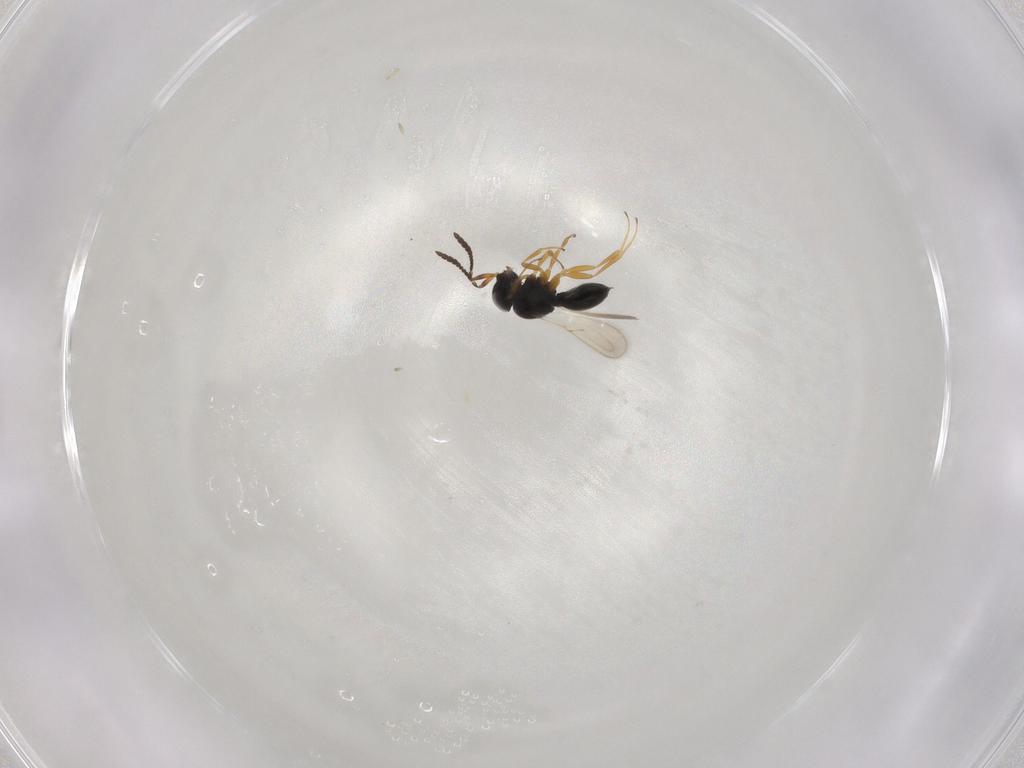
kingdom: Animalia
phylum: Arthropoda
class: Insecta
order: Hymenoptera
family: Scelionidae
